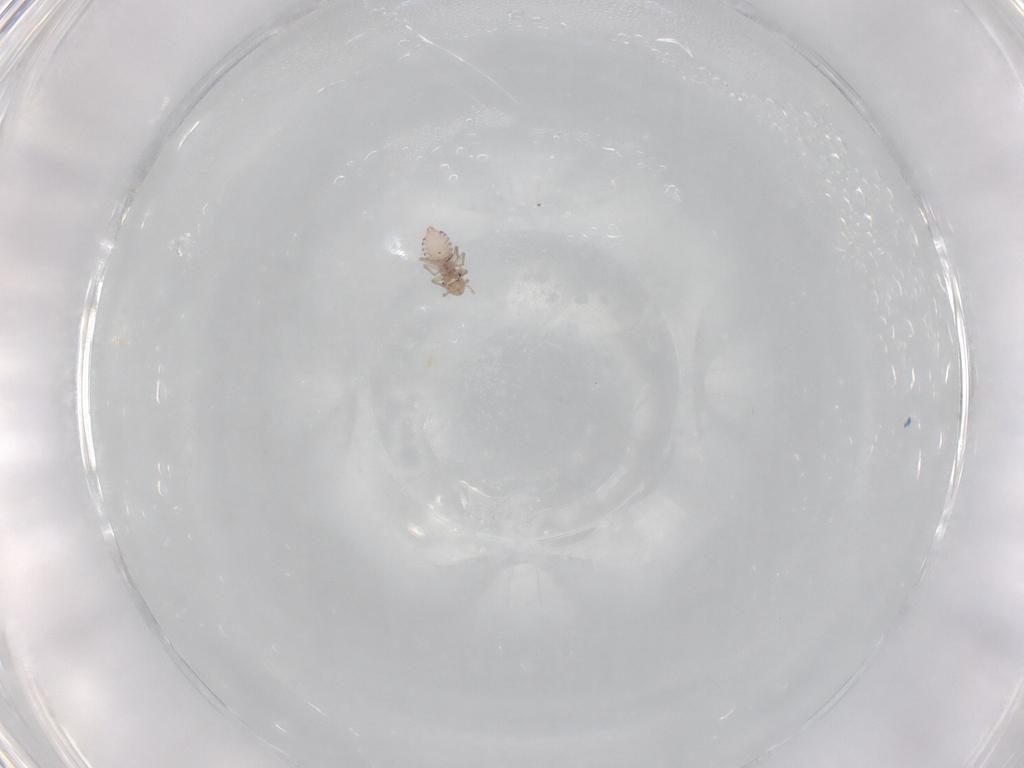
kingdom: Animalia
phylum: Arthropoda
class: Insecta
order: Psocodea
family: Lepidopsocidae
